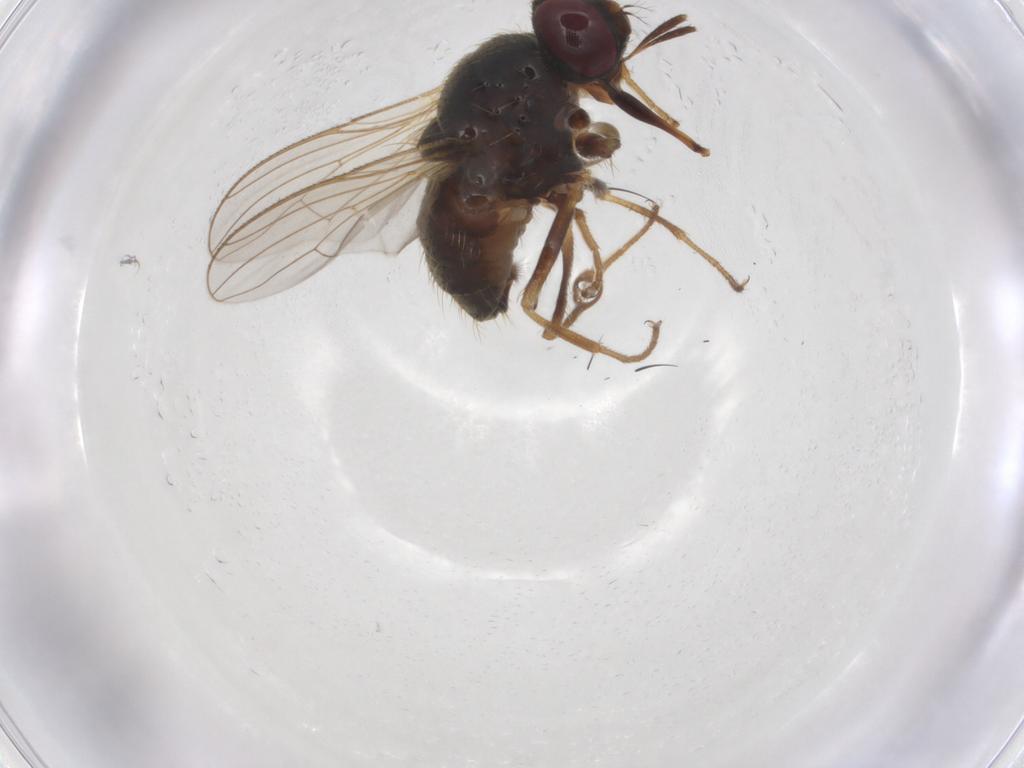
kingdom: Animalia
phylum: Arthropoda
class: Insecta
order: Diptera
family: Muscidae
